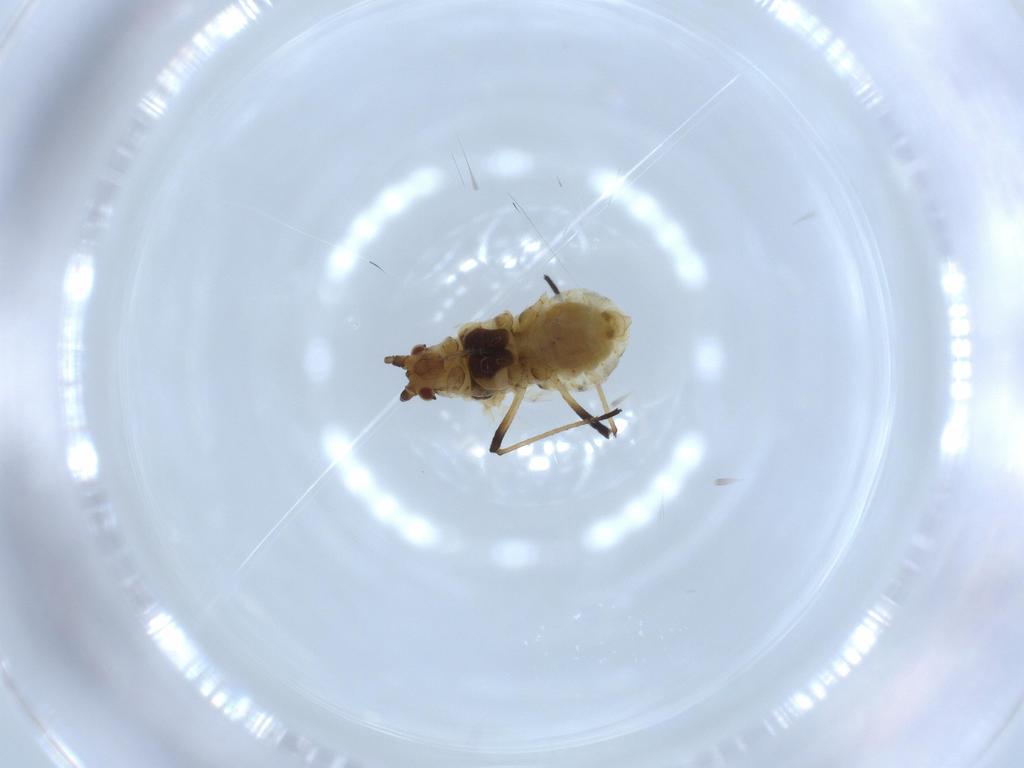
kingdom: Animalia
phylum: Arthropoda
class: Insecta
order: Hemiptera
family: Aphididae
